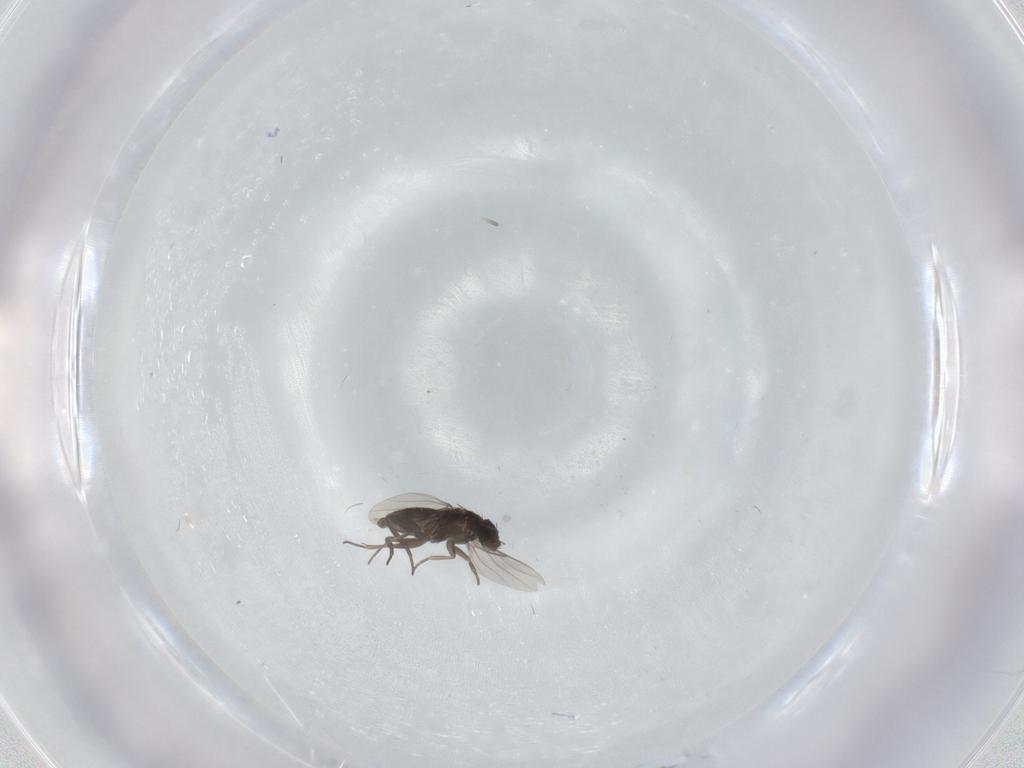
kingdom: Animalia
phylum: Arthropoda
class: Insecta
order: Diptera
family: Phoridae
